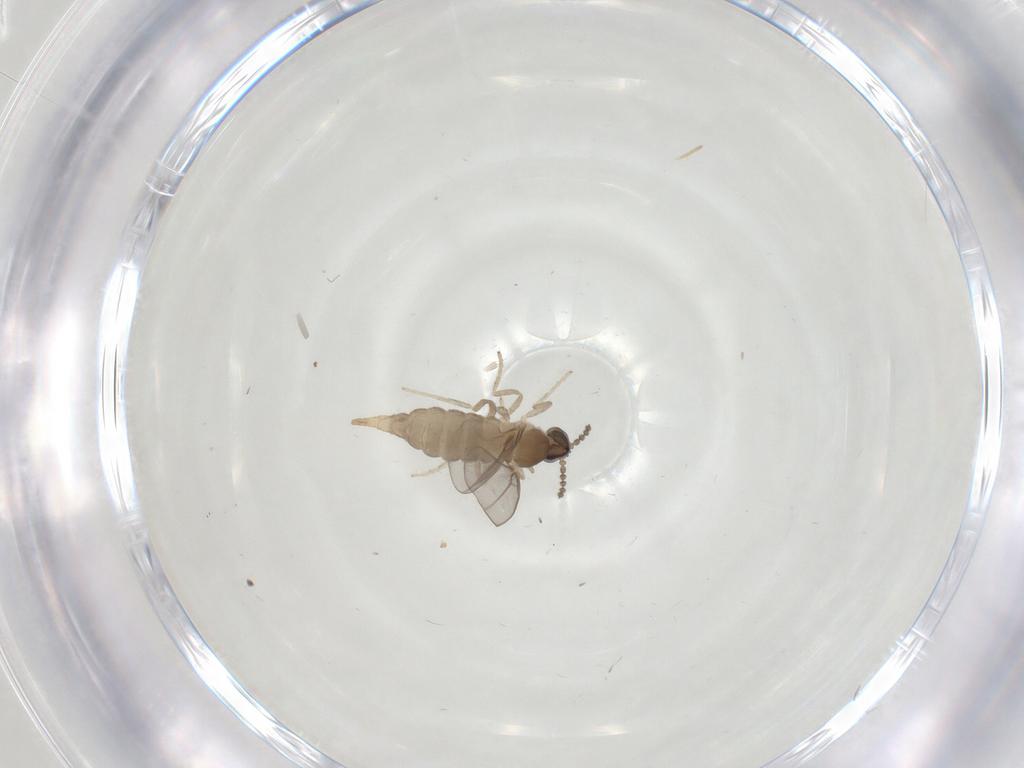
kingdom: Animalia
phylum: Arthropoda
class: Insecta
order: Diptera
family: Cecidomyiidae
